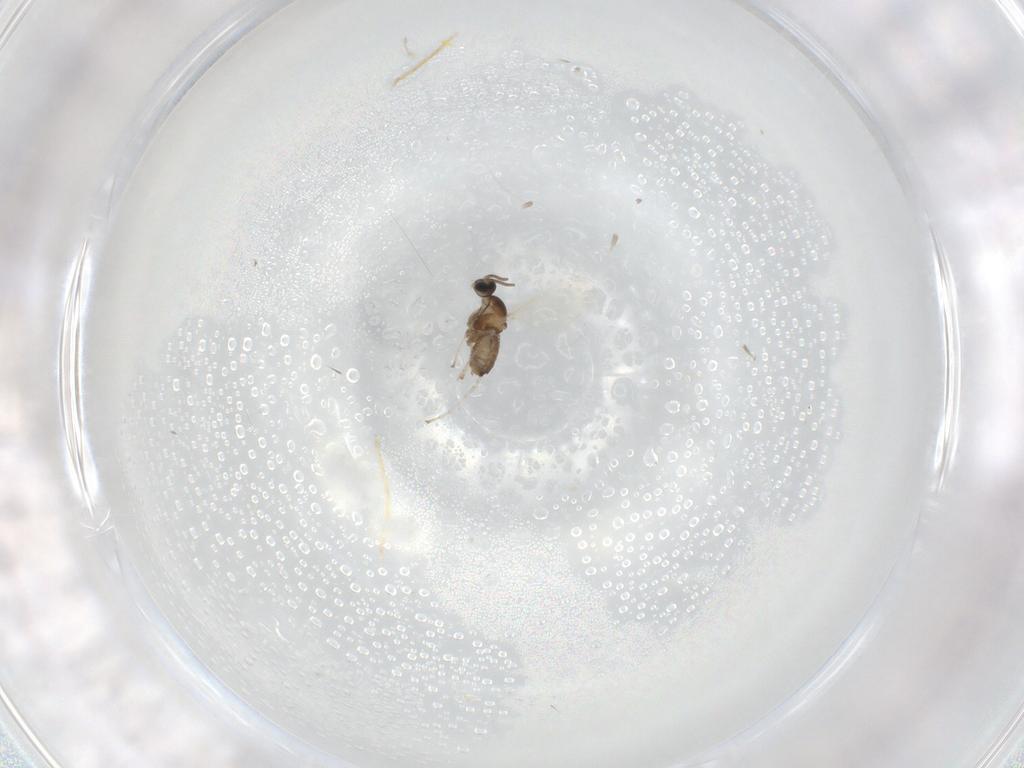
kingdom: Animalia
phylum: Arthropoda
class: Insecta
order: Diptera
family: Cecidomyiidae
